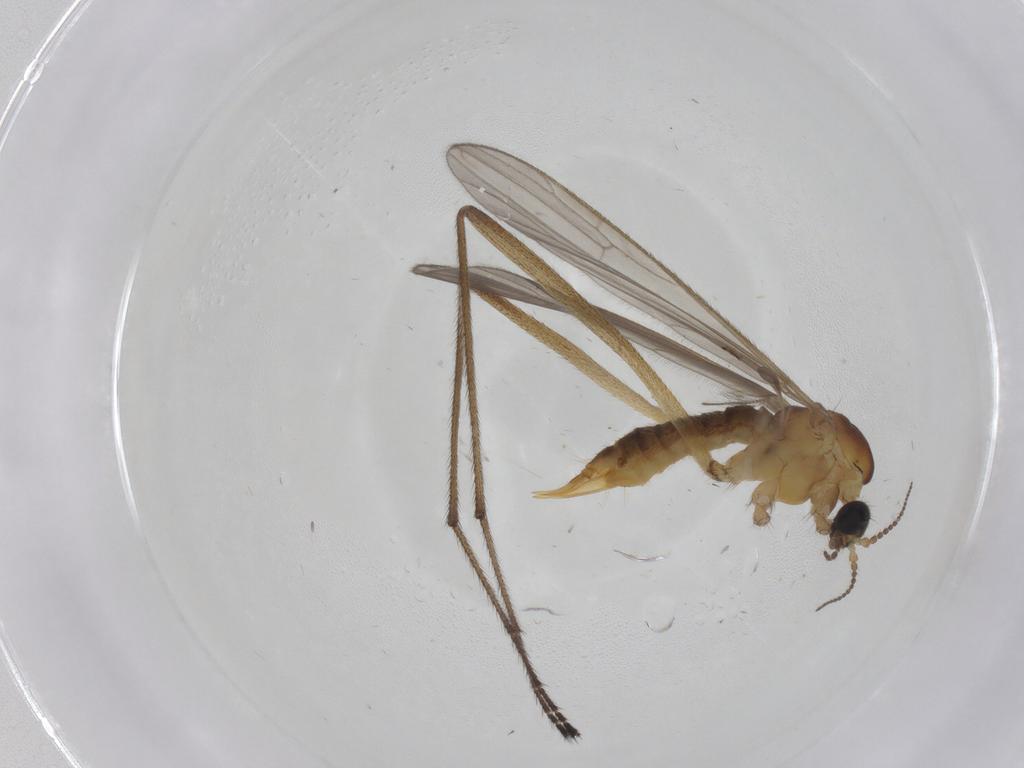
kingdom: Animalia
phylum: Arthropoda
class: Insecta
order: Diptera
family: Limoniidae
